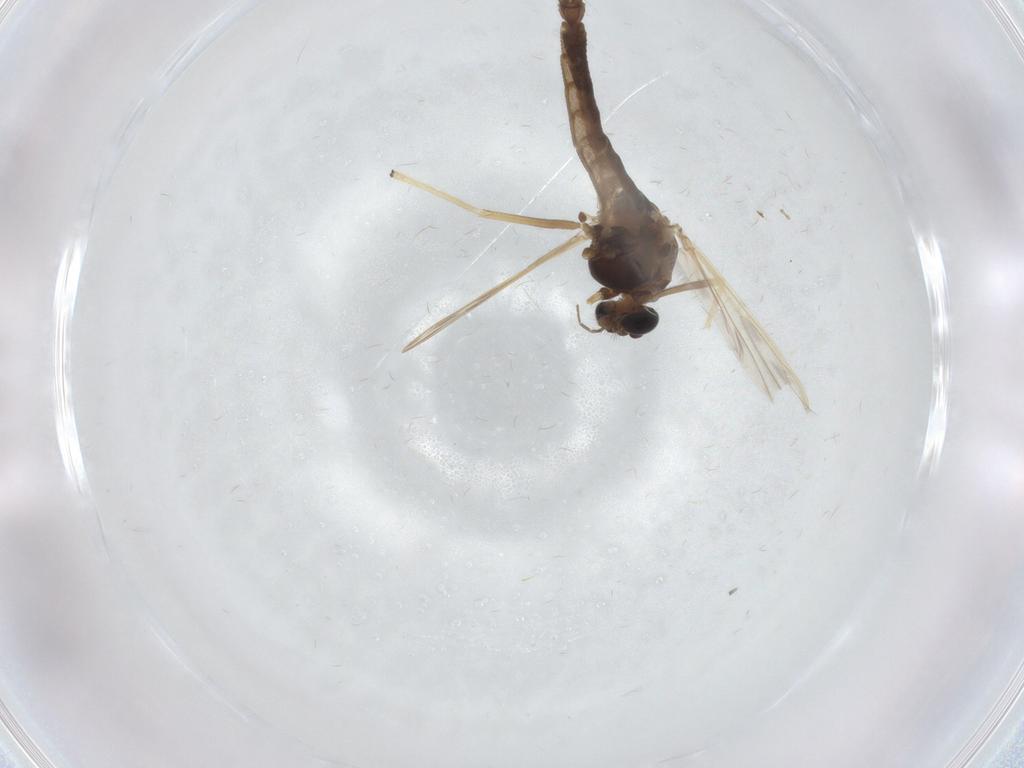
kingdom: Animalia
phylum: Arthropoda
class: Insecta
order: Diptera
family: Chironomidae
